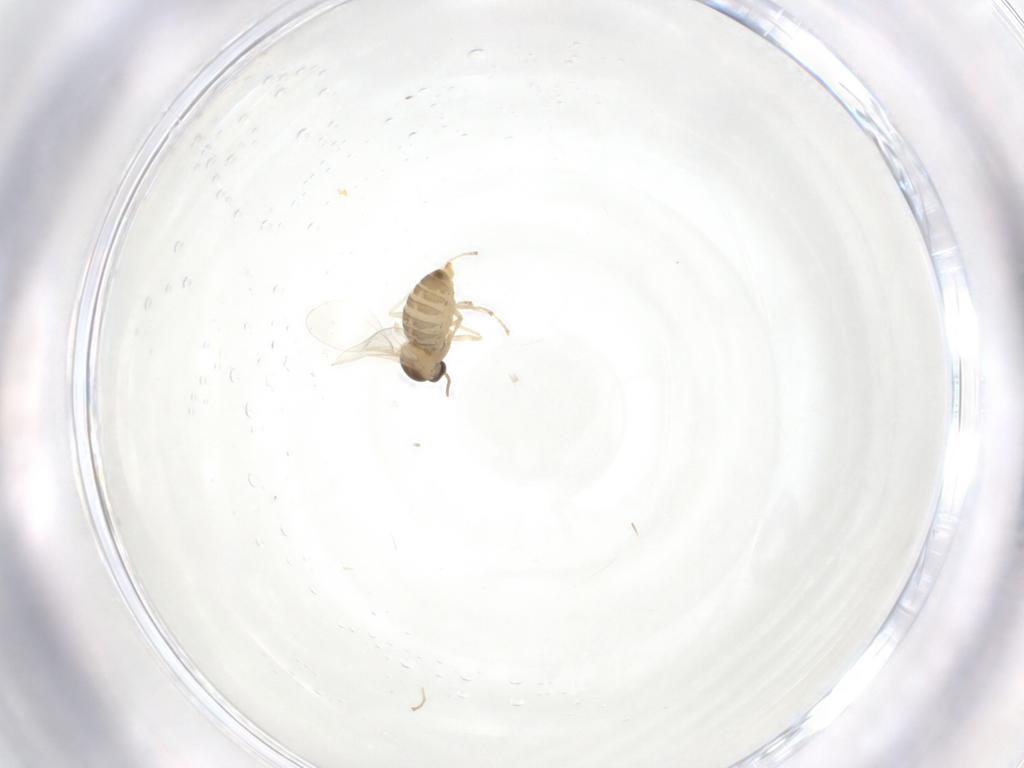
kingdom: Animalia
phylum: Arthropoda
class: Insecta
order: Diptera
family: Cecidomyiidae
